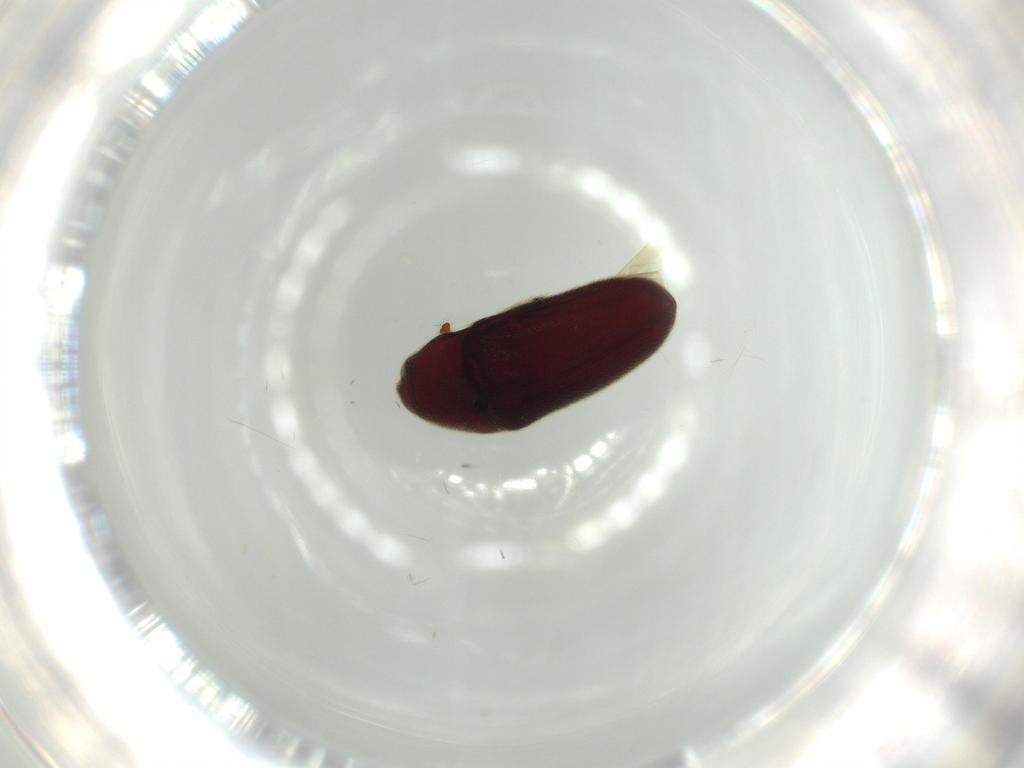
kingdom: Animalia
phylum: Arthropoda
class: Insecta
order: Coleoptera
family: Throscidae
